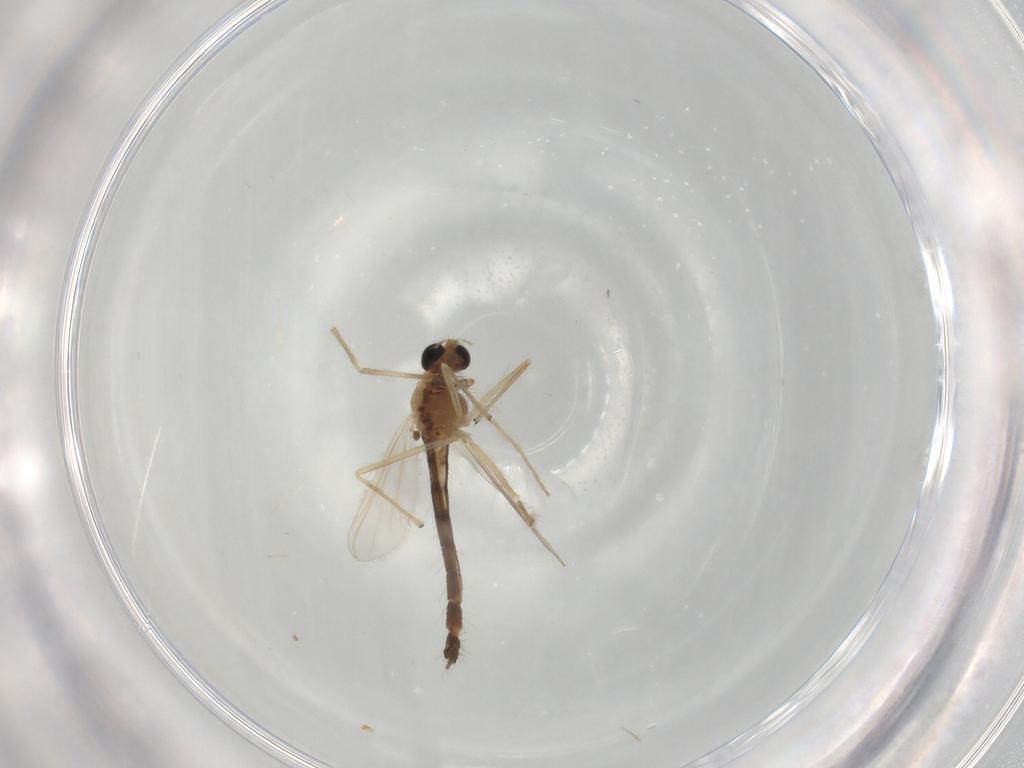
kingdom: Animalia
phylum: Arthropoda
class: Insecta
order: Diptera
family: Chironomidae
